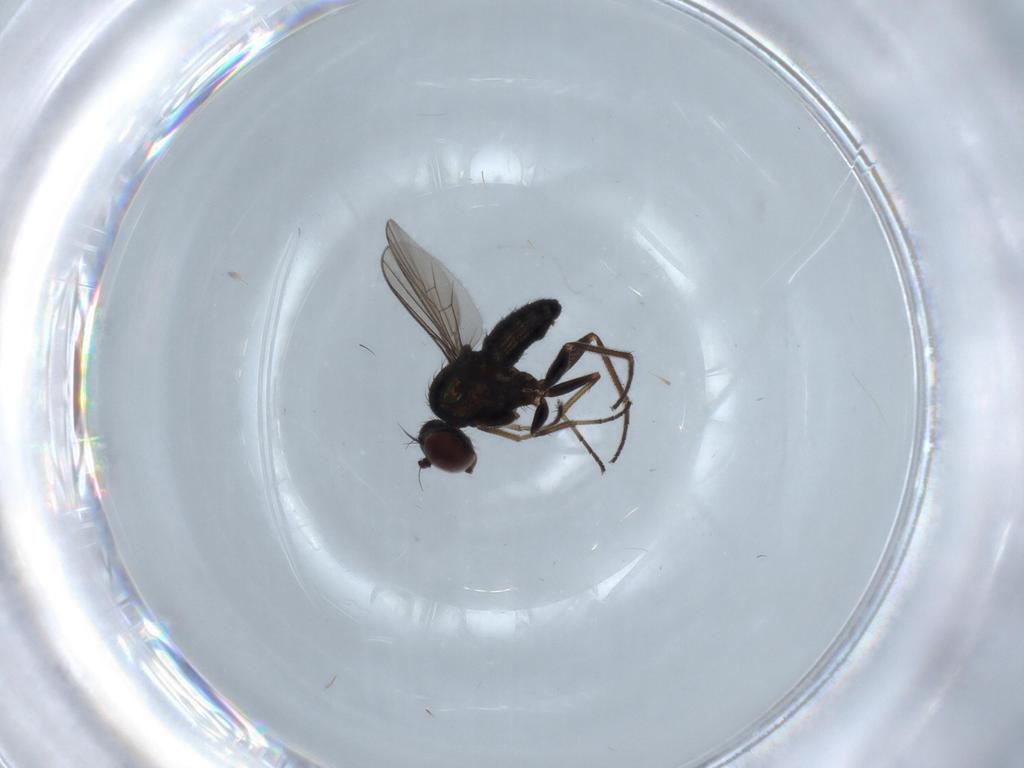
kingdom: Animalia
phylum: Arthropoda
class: Insecta
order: Diptera
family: Dolichopodidae
